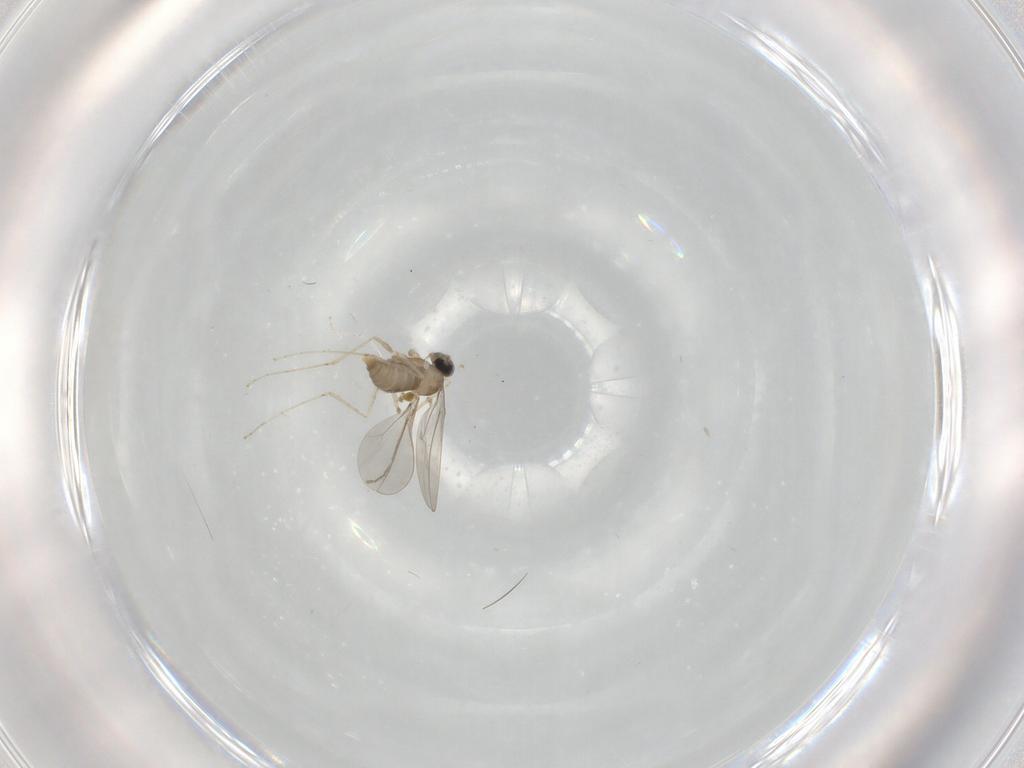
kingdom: Animalia
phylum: Arthropoda
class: Insecta
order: Diptera
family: Cecidomyiidae
